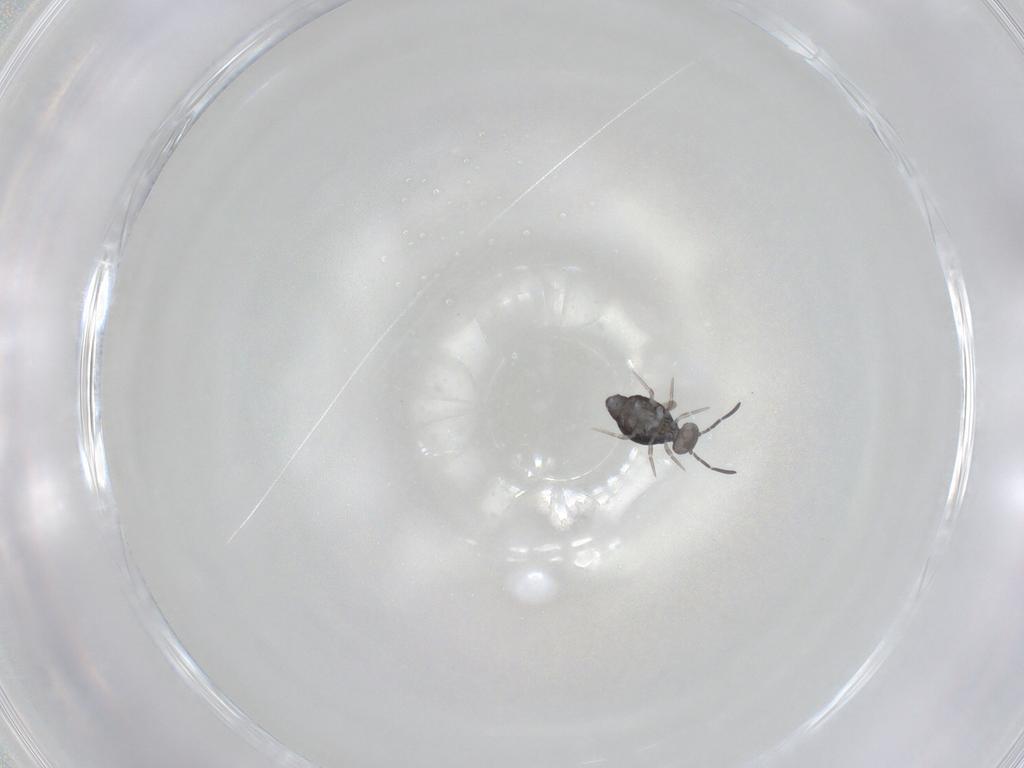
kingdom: Animalia
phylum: Arthropoda
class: Collembola
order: Symphypleona
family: Katiannidae
